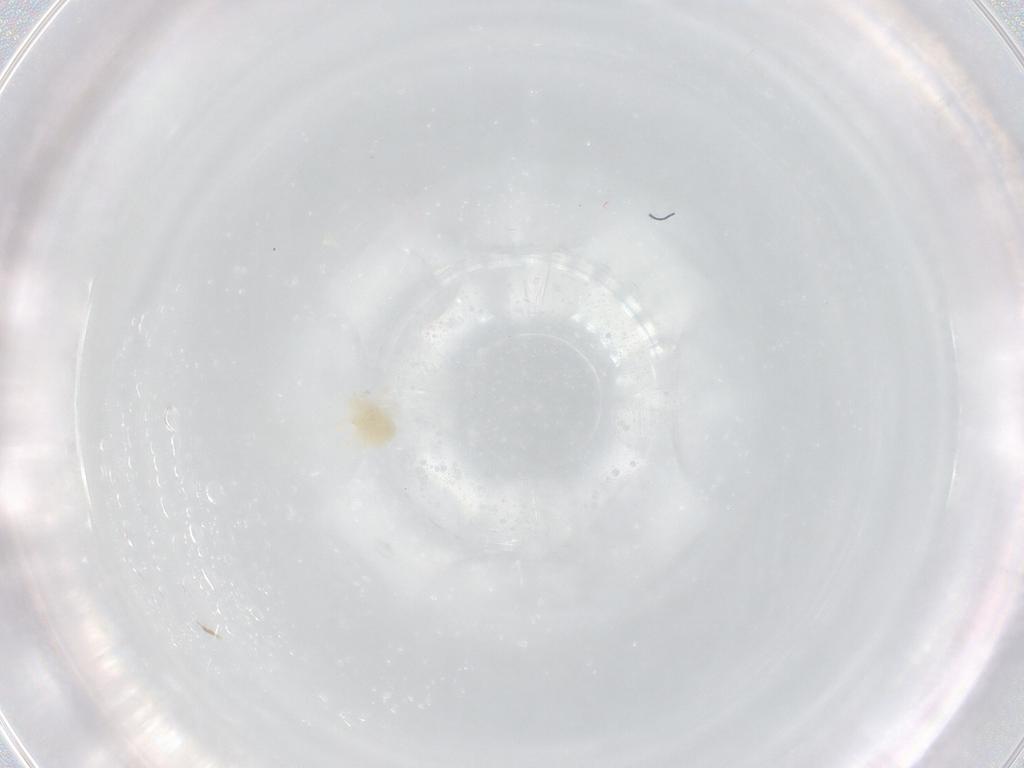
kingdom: Animalia
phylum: Arthropoda
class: Arachnida
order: Trombidiformes
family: Anystidae
